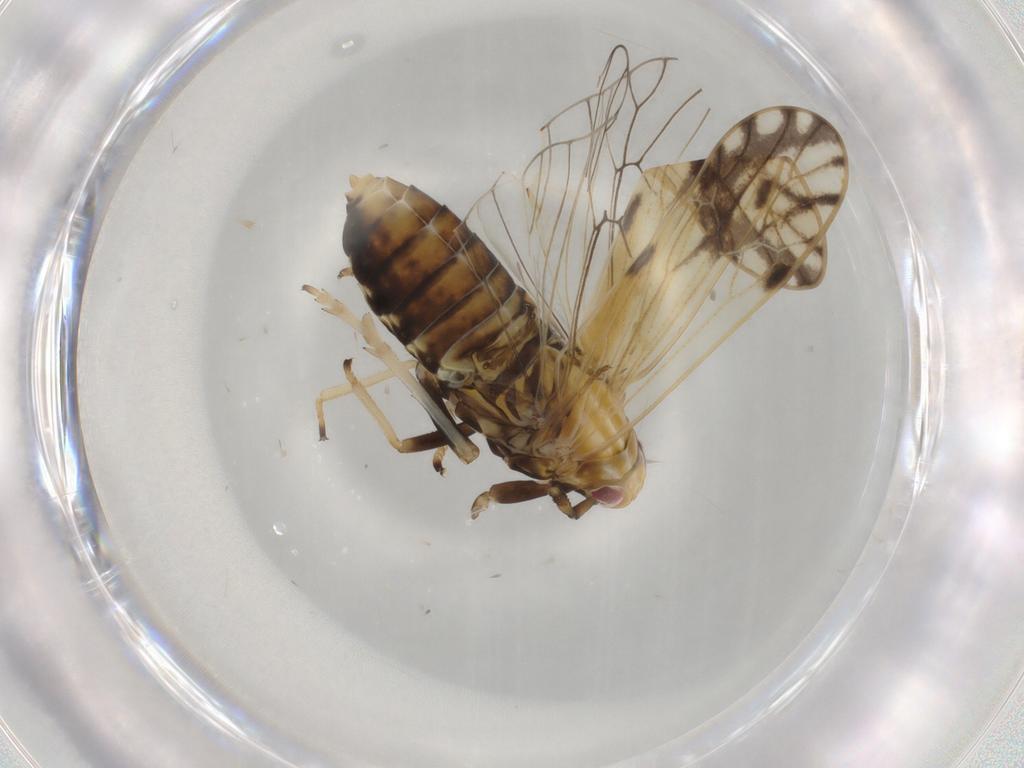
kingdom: Animalia
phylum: Arthropoda
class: Insecta
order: Hemiptera
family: Delphacidae
